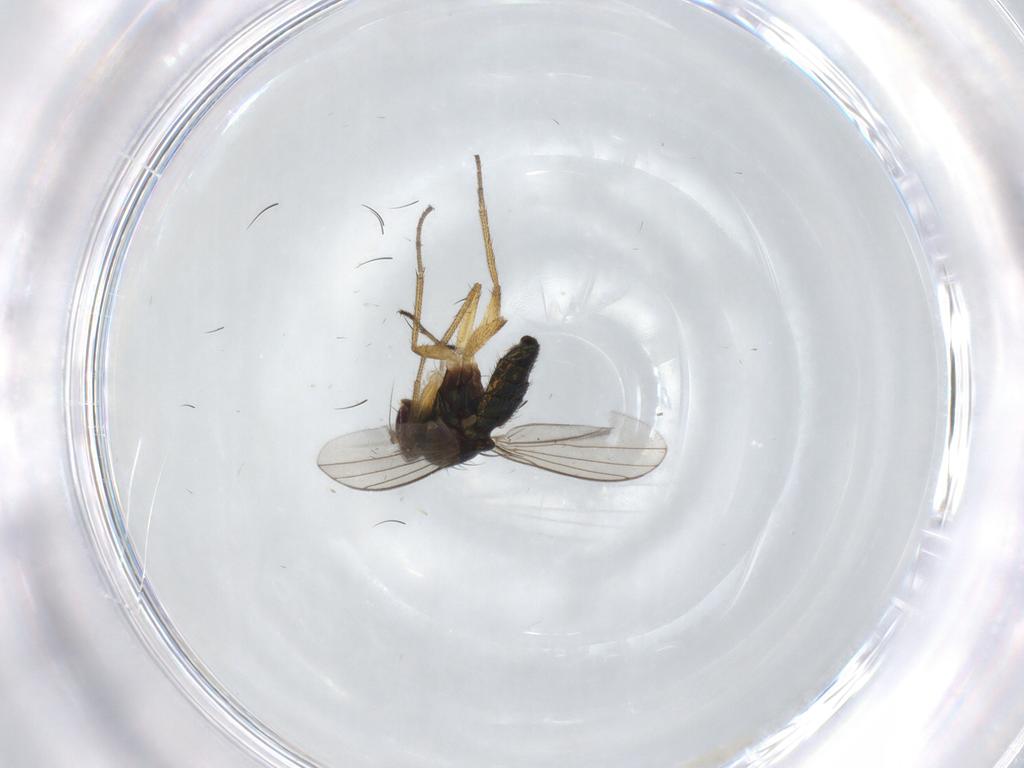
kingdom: Animalia
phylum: Arthropoda
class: Insecta
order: Diptera
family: Dolichopodidae
